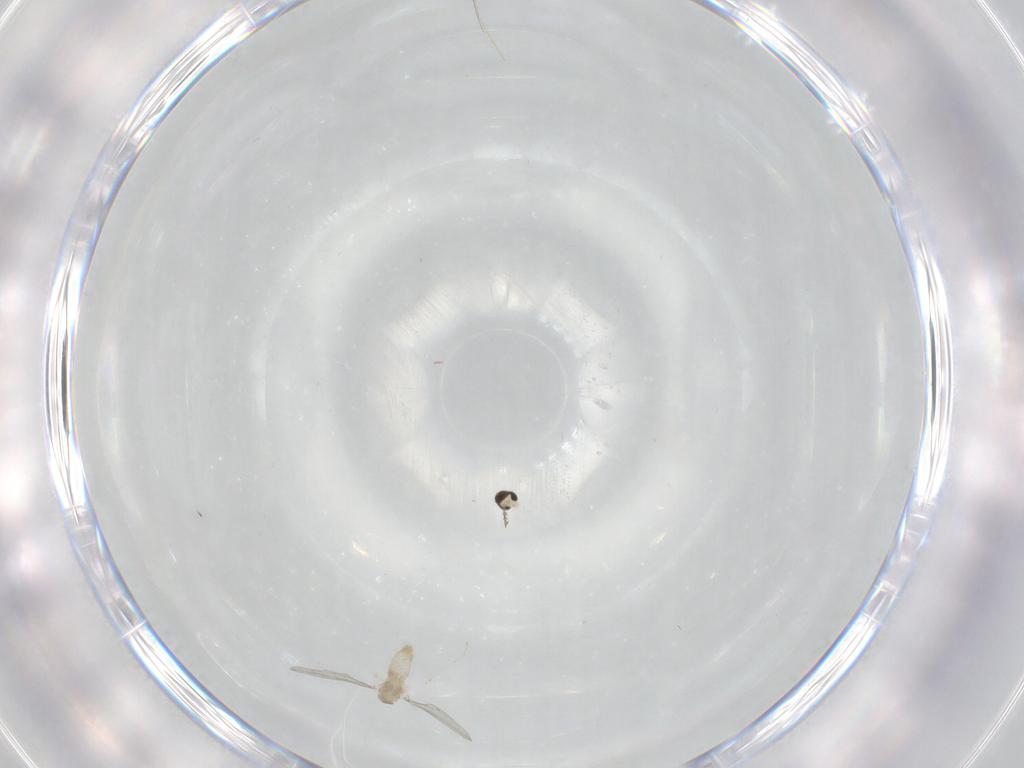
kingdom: Animalia
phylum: Arthropoda
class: Insecta
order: Diptera
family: Cecidomyiidae
